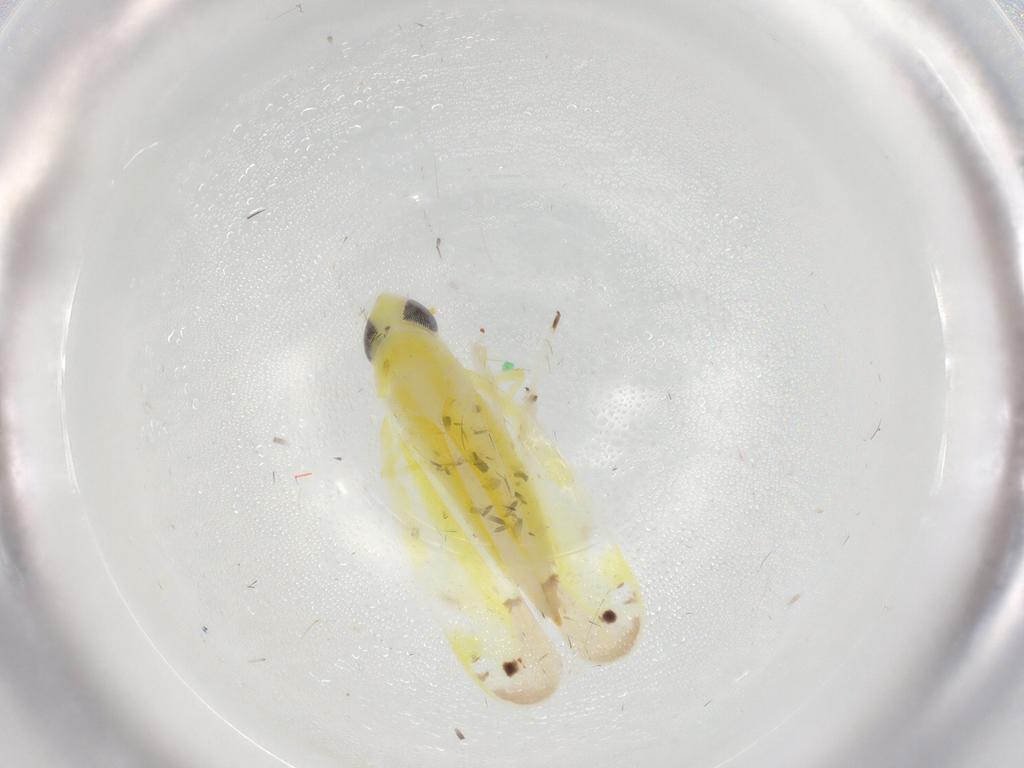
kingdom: Animalia
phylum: Arthropoda
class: Insecta
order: Hemiptera
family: Cicadellidae
